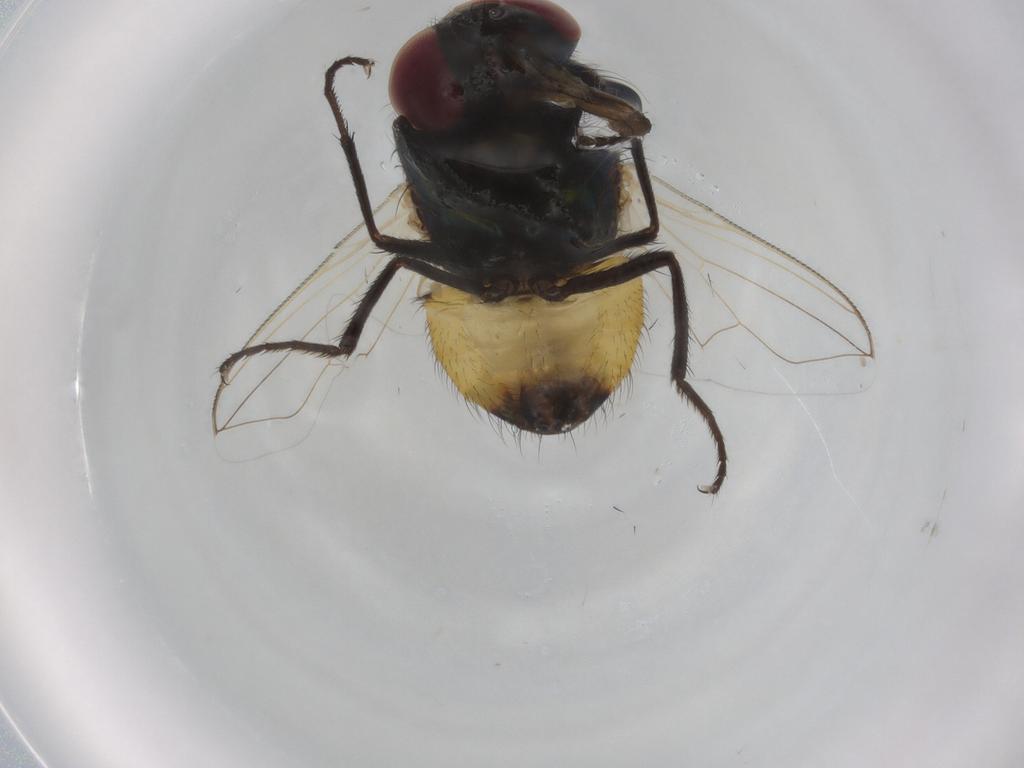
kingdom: Animalia
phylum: Arthropoda
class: Insecta
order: Diptera
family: Muscidae
